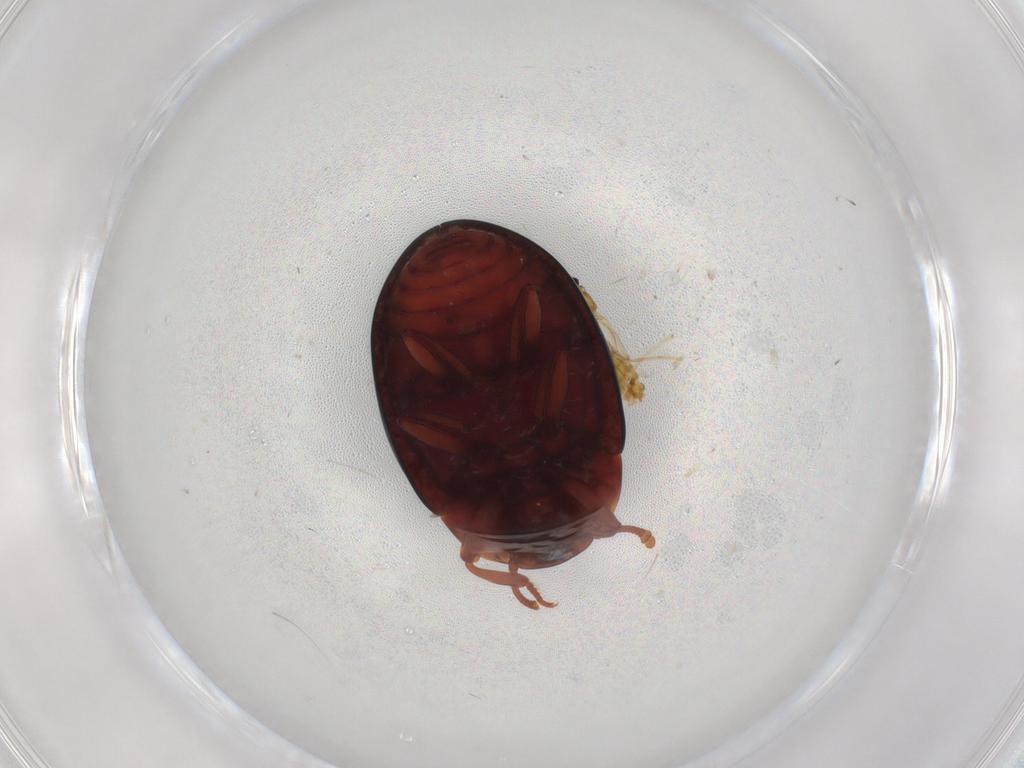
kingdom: Animalia
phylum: Arthropoda
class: Insecta
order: Coleoptera
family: Zopheridae
